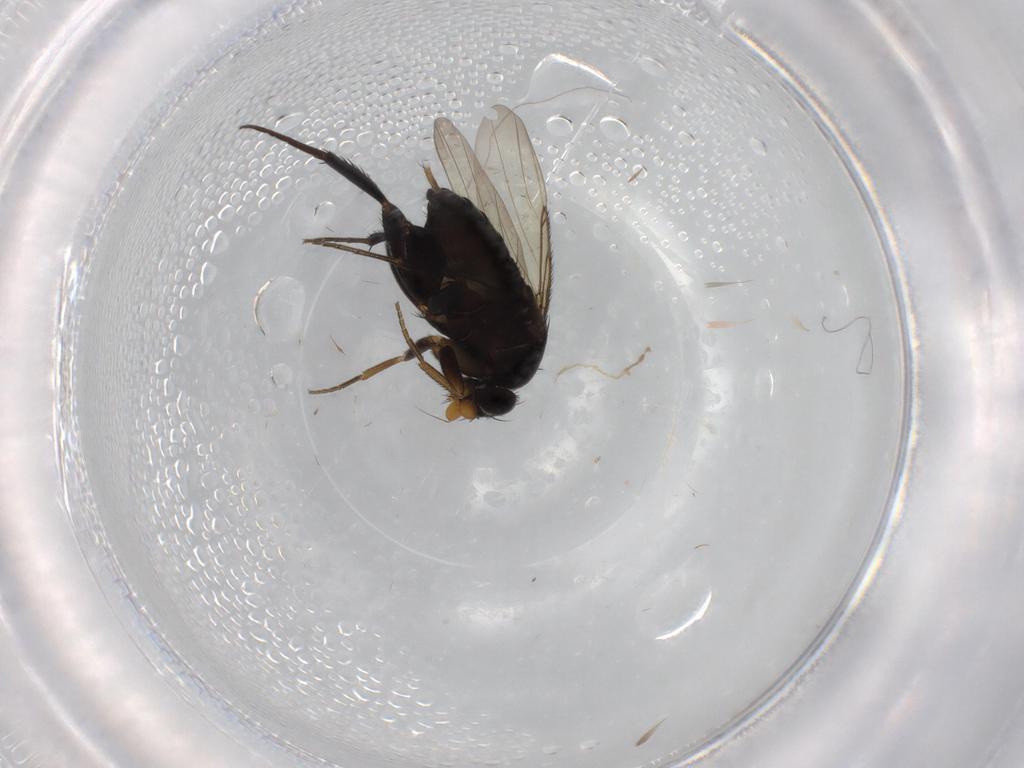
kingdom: Animalia
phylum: Arthropoda
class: Insecta
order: Diptera
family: Phoridae
